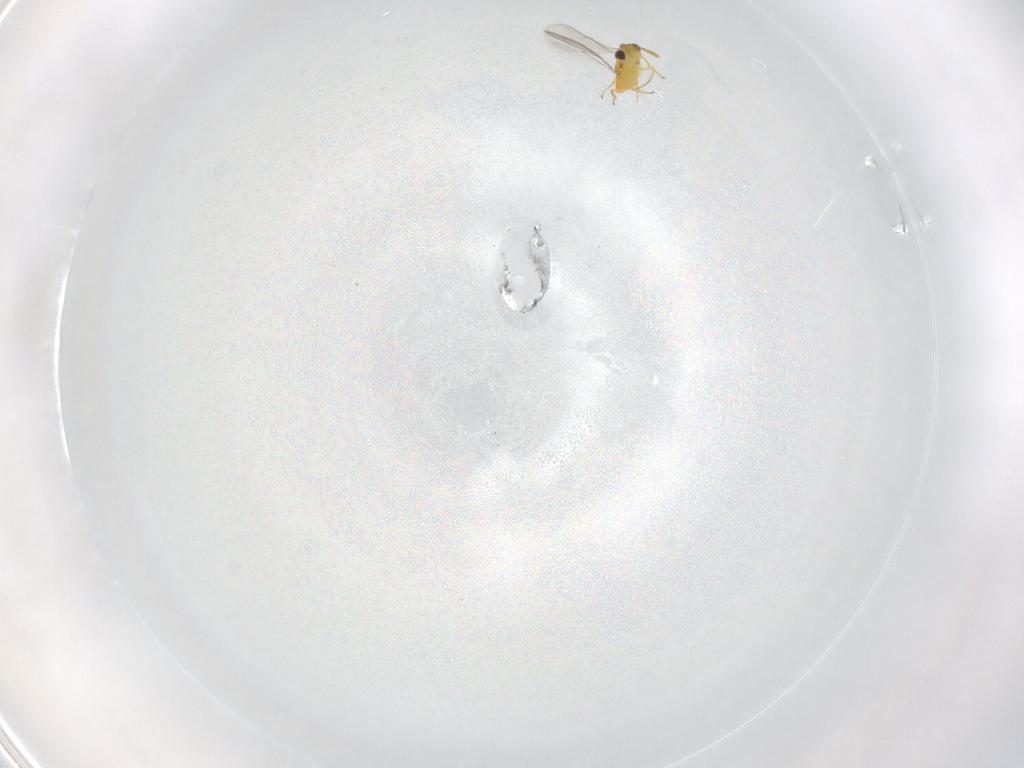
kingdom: Animalia
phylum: Arthropoda
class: Insecta
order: Hymenoptera
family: Aphelinidae
